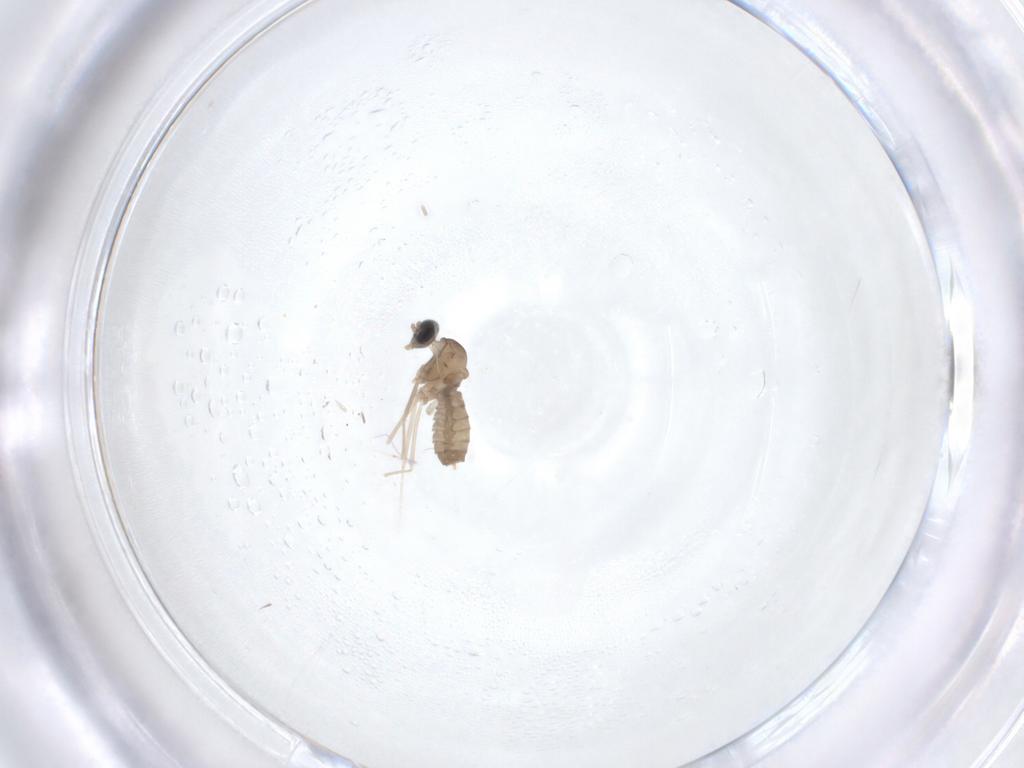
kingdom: Animalia
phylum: Arthropoda
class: Insecta
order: Diptera
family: Cecidomyiidae
